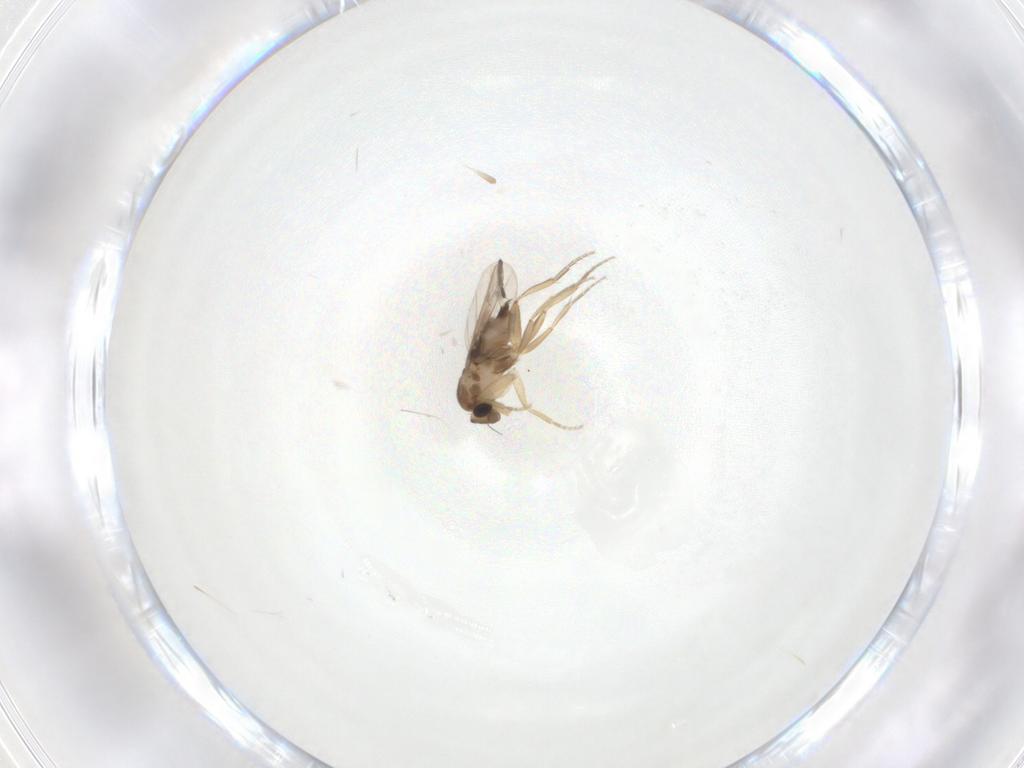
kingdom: Animalia
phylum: Arthropoda
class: Insecta
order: Diptera
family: Phoridae
